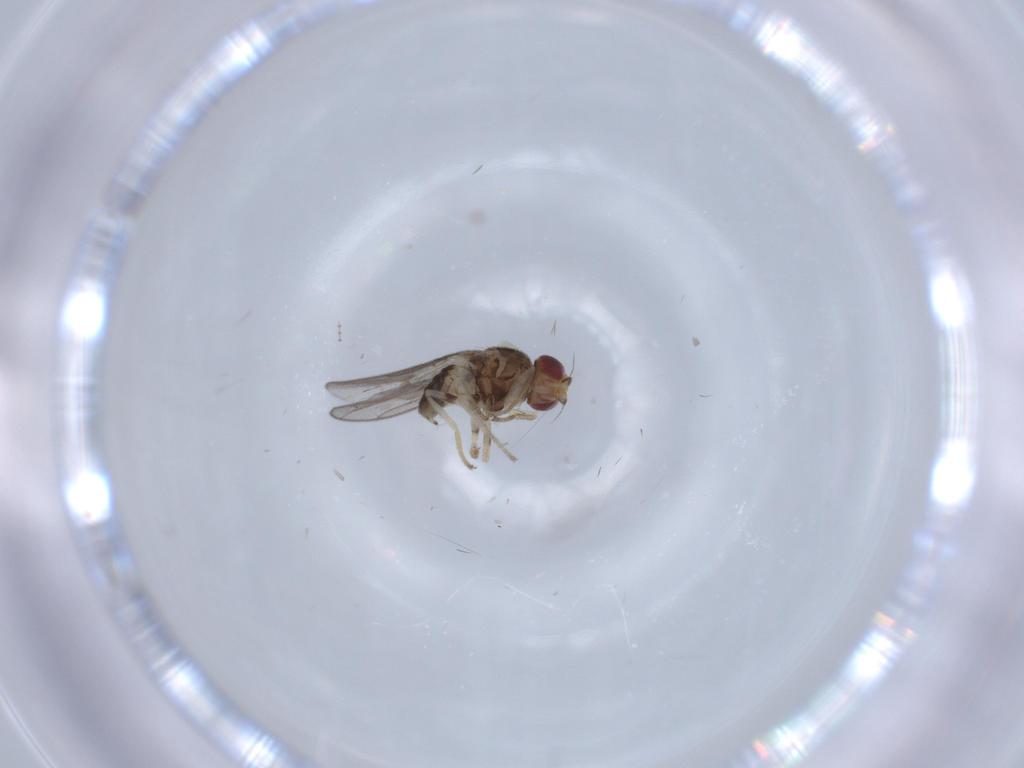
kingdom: Animalia
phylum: Arthropoda
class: Insecta
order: Diptera
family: Chloropidae
